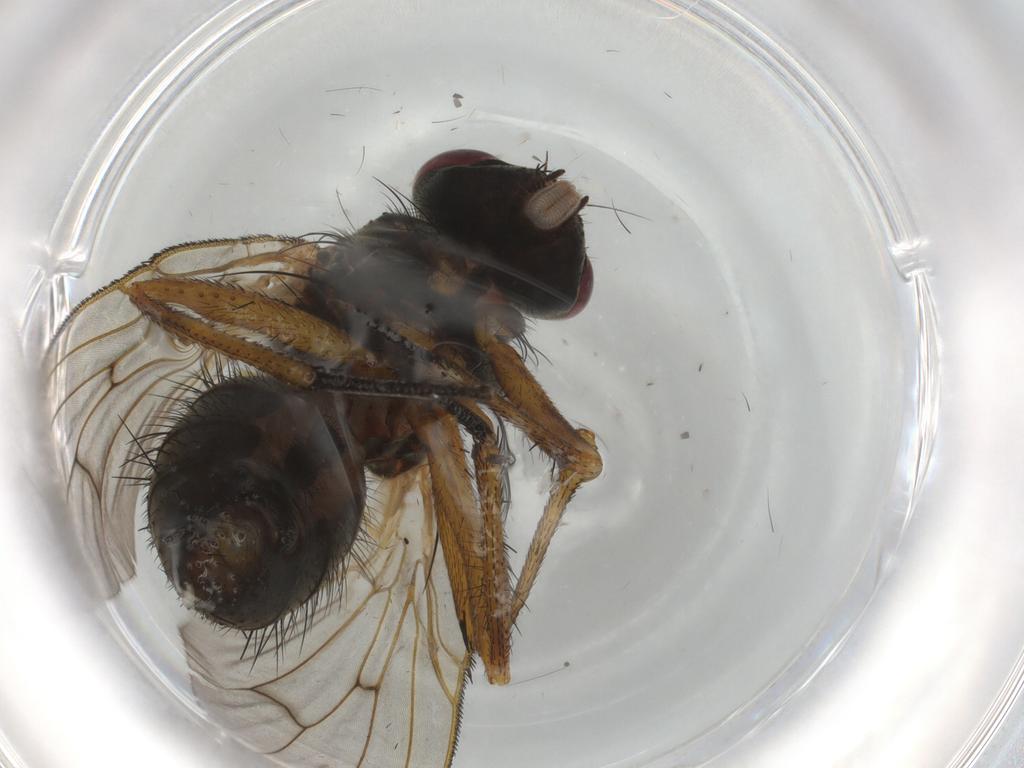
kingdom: Animalia
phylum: Arthropoda
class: Insecta
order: Diptera
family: Muscidae
